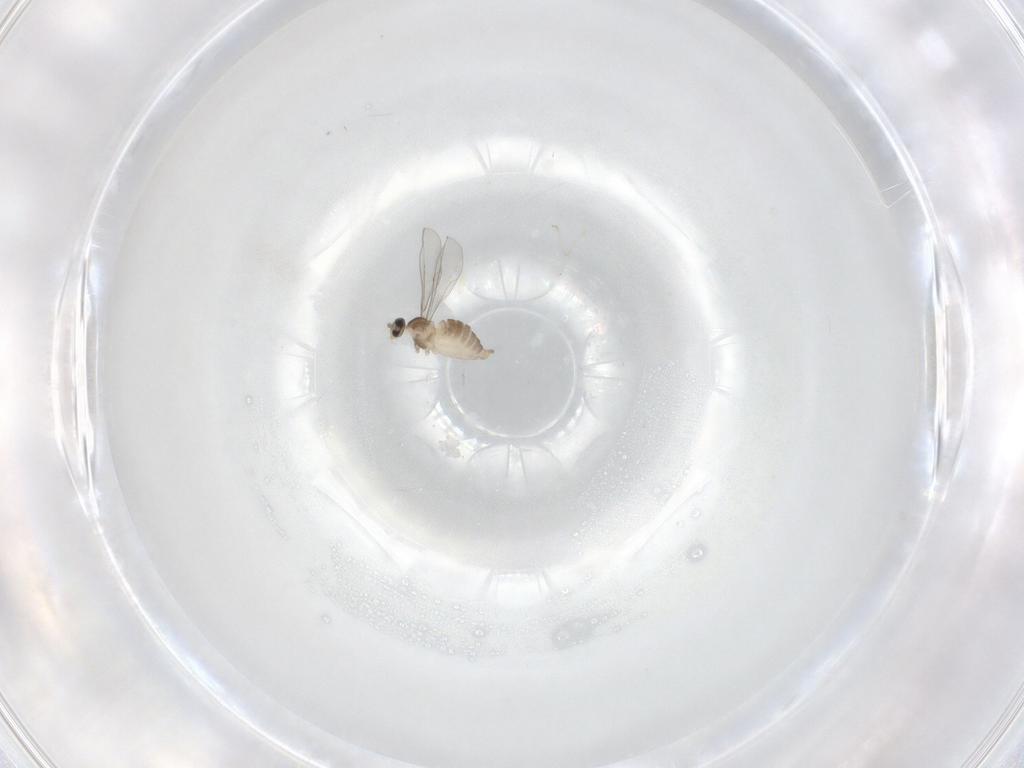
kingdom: Animalia
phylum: Arthropoda
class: Insecta
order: Diptera
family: Cecidomyiidae
